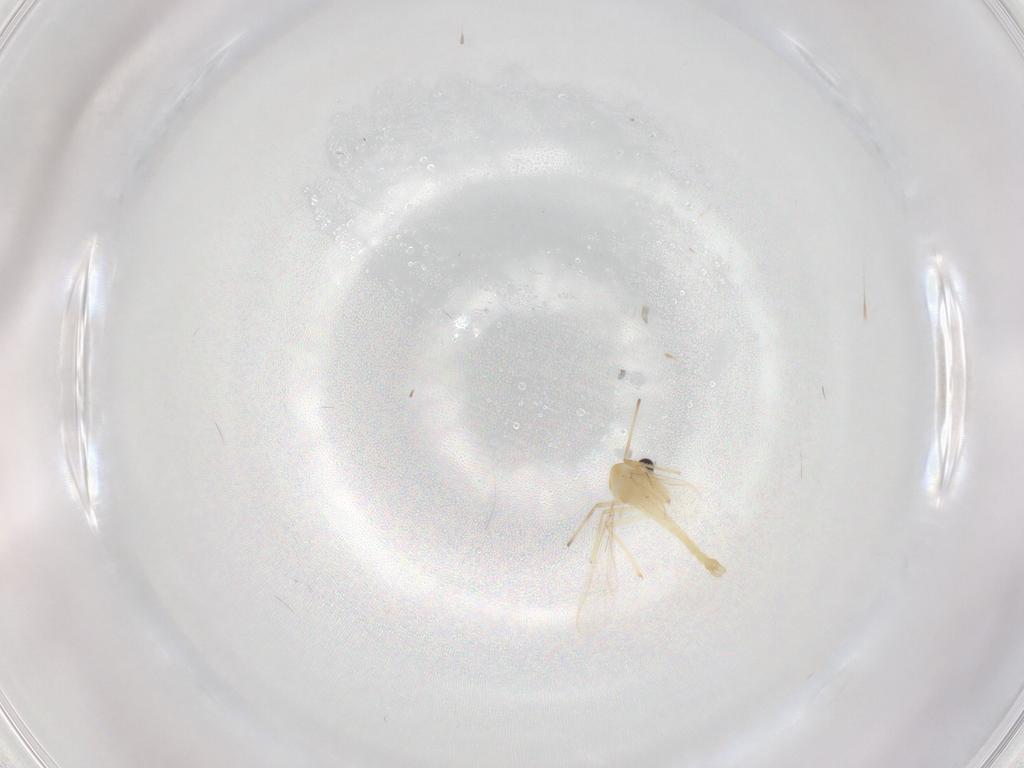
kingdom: Animalia
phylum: Arthropoda
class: Insecta
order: Diptera
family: Chironomidae
